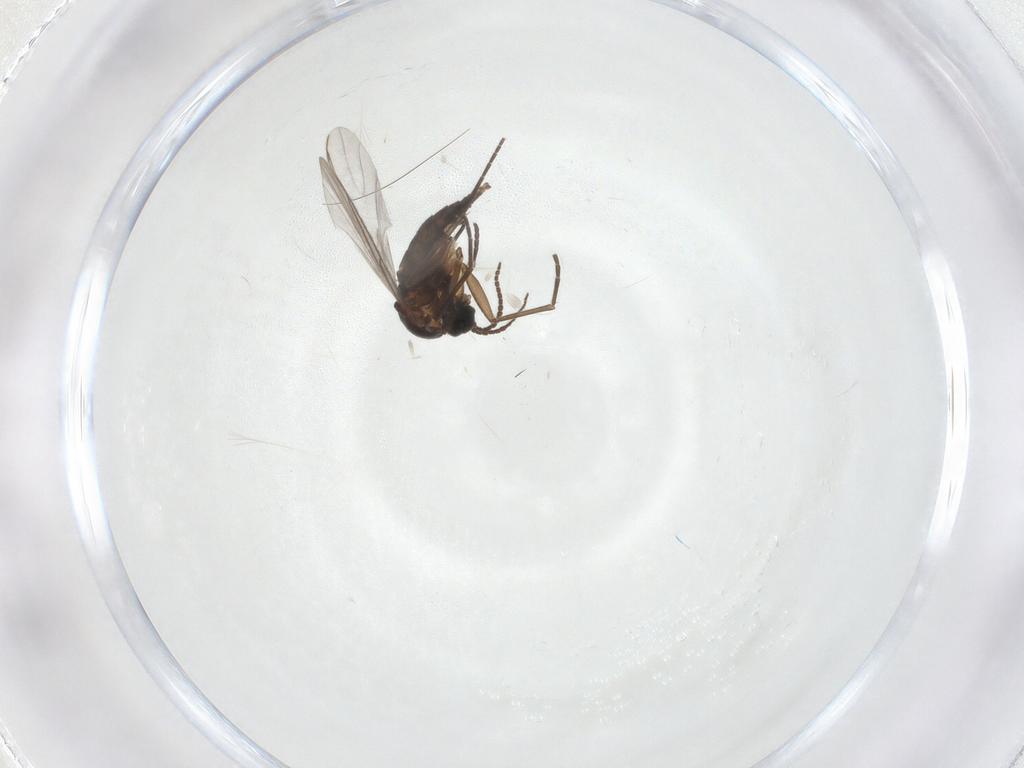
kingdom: Animalia
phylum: Arthropoda
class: Insecta
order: Diptera
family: Sciaridae
